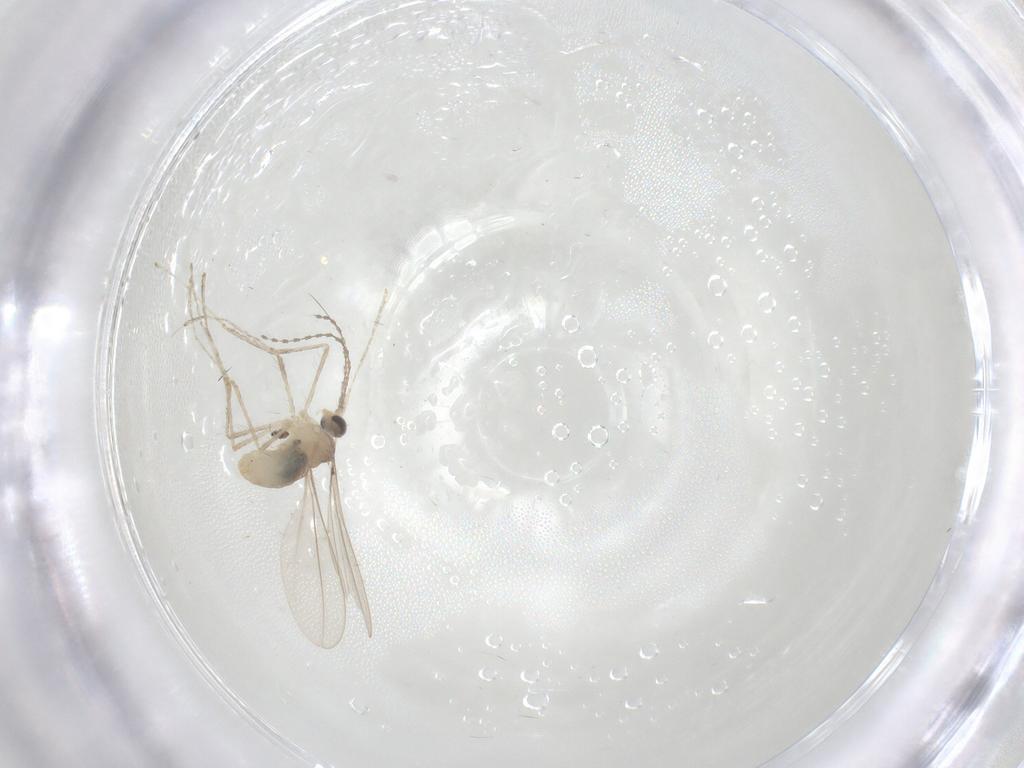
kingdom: Animalia
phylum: Arthropoda
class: Insecta
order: Diptera
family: Cecidomyiidae
